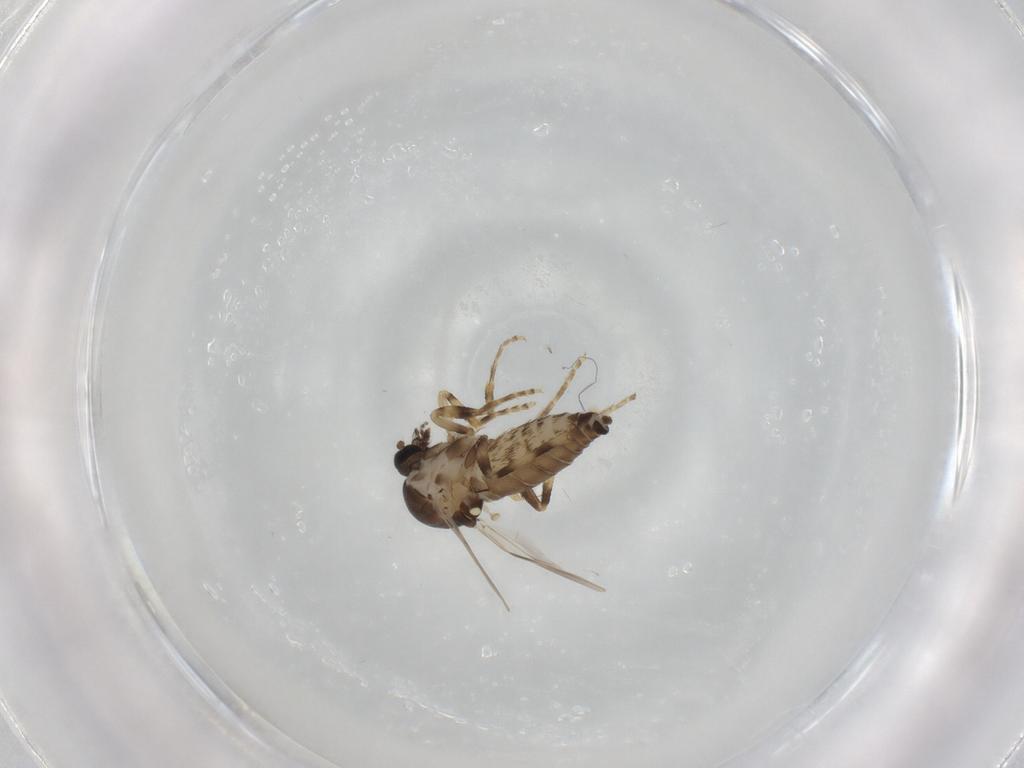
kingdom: Animalia
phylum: Arthropoda
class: Insecta
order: Diptera
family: Ceratopogonidae
